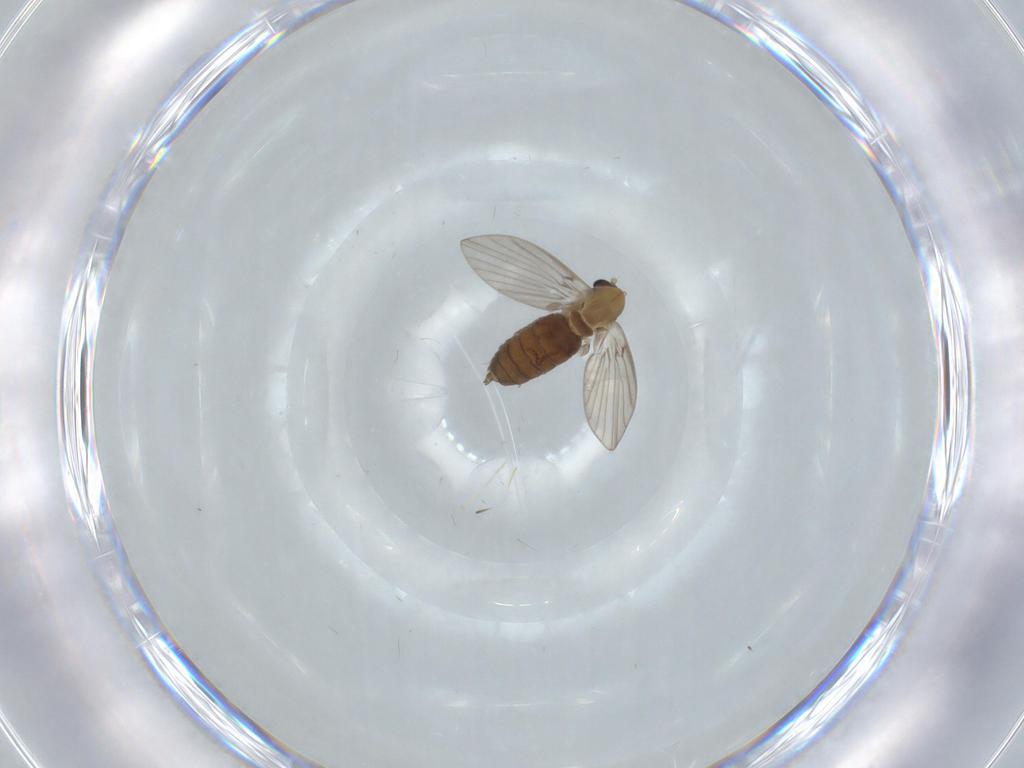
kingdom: Animalia
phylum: Arthropoda
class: Insecta
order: Diptera
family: Psychodidae
